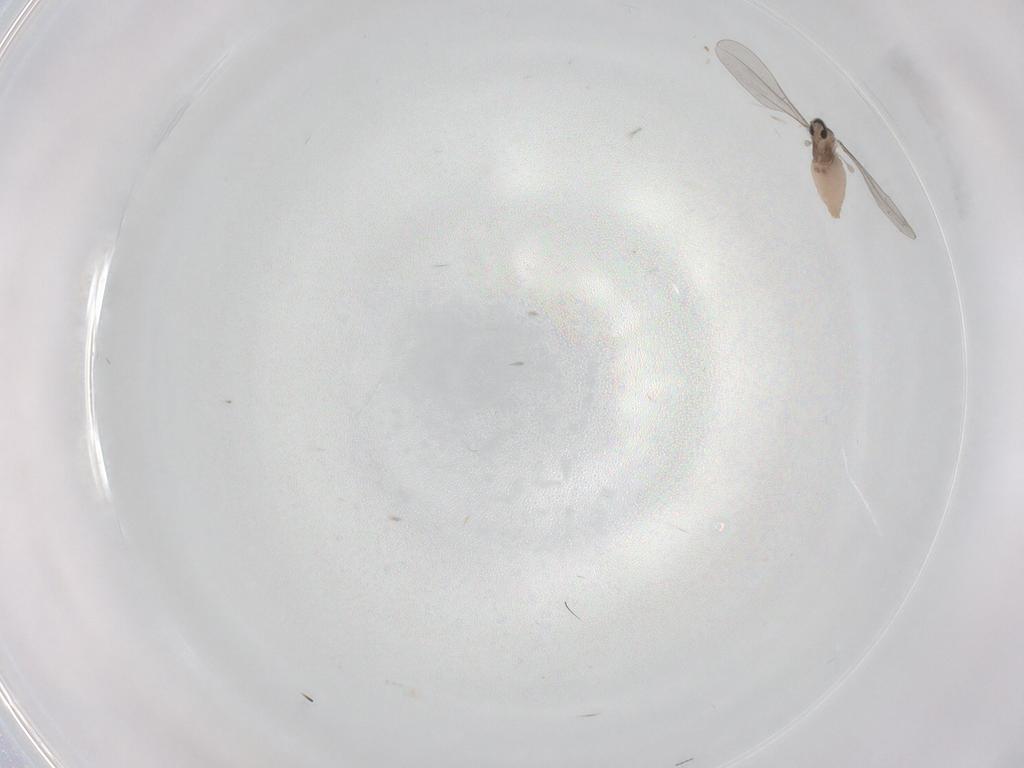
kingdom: Animalia
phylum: Arthropoda
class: Insecta
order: Diptera
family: Cecidomyiidae
